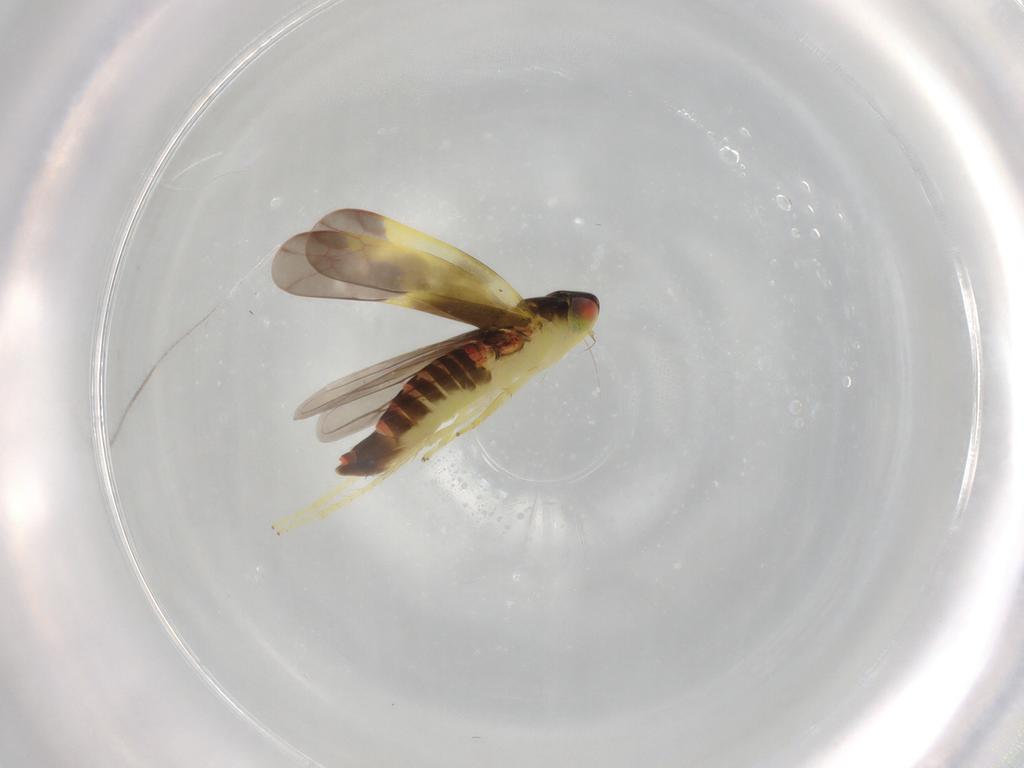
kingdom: Animalia
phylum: Arthropoda
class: Insecta
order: Hemiptera
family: Cicadellidae
